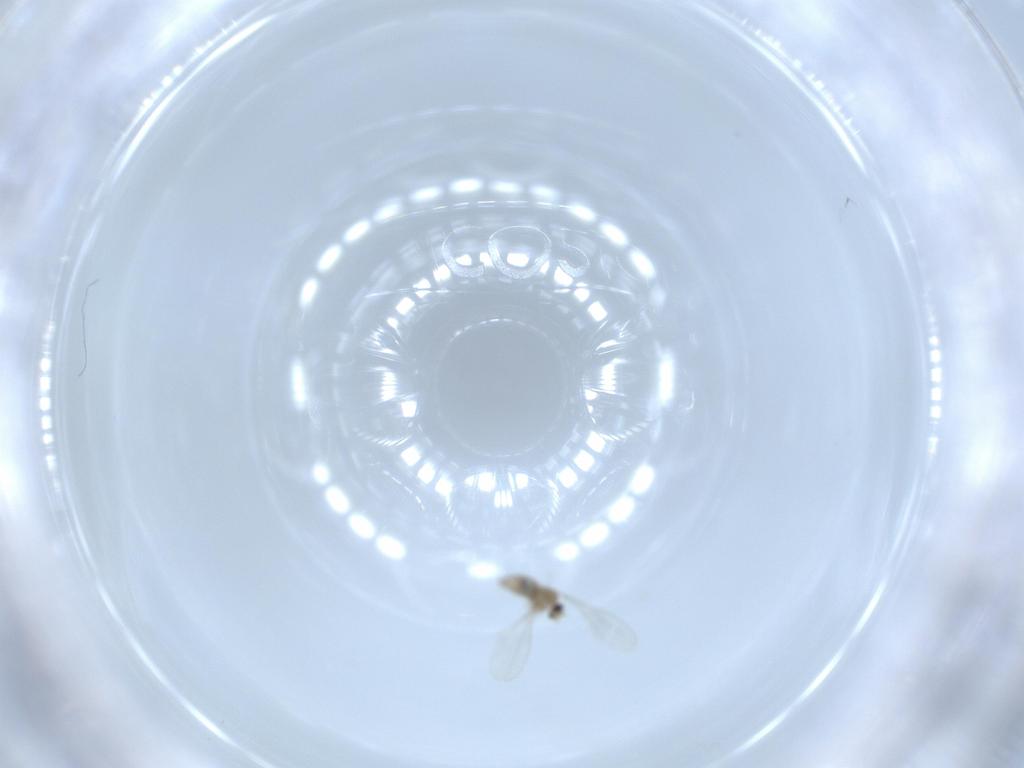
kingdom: Animalia
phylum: Arthropoda
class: Insecta
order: Diptera
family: Cecidomyiidae
